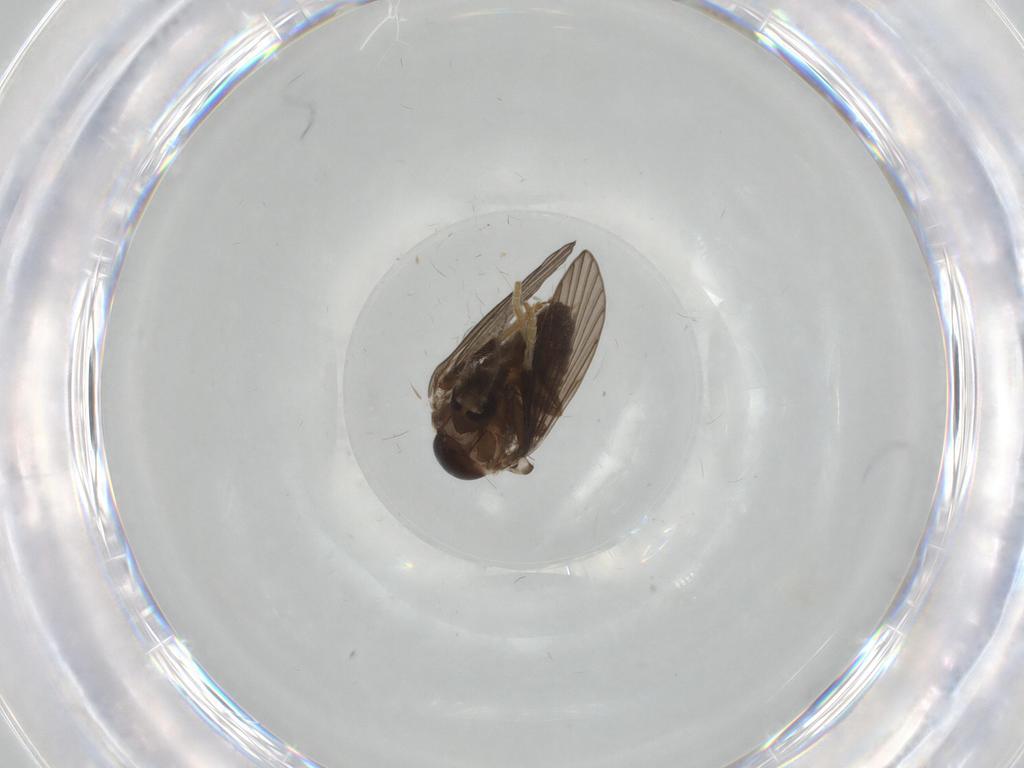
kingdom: Animalia
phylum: Arthropoda
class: Insecta
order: Diptera
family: Psychodidae
